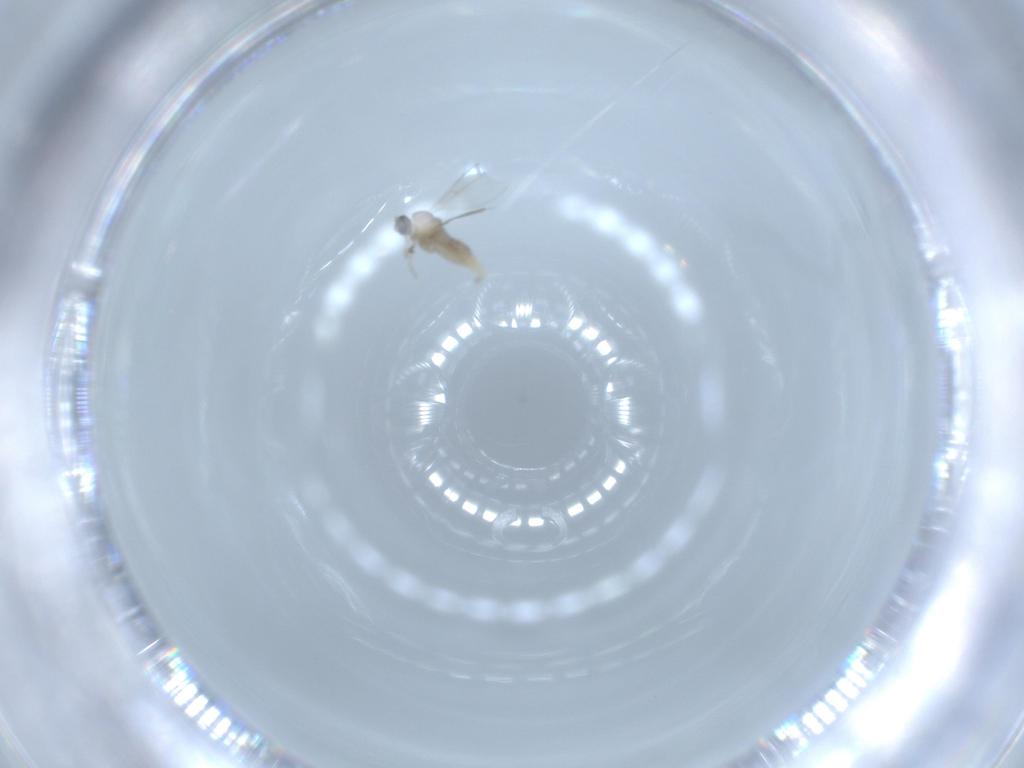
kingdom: Animalia
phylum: Arthropoda
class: Insecta
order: Diptera
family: Cecidomyiidae
